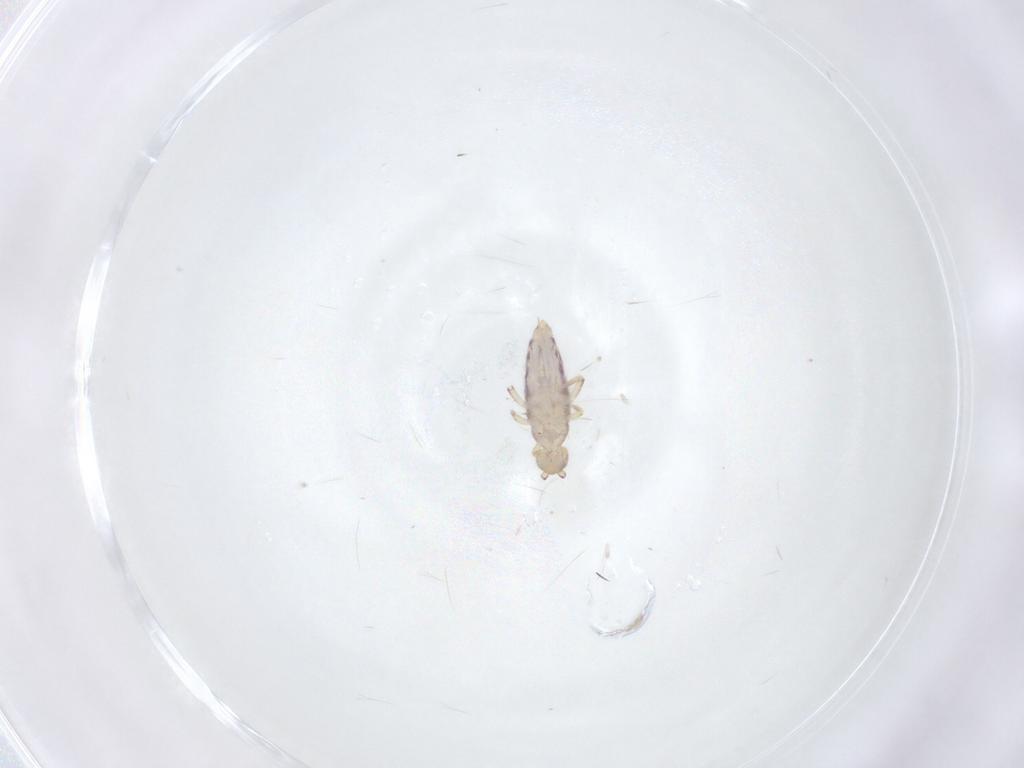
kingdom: Animalia
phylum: Arthropoda
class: Collembola
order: Entomobryomorpha
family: Entomobryidae
